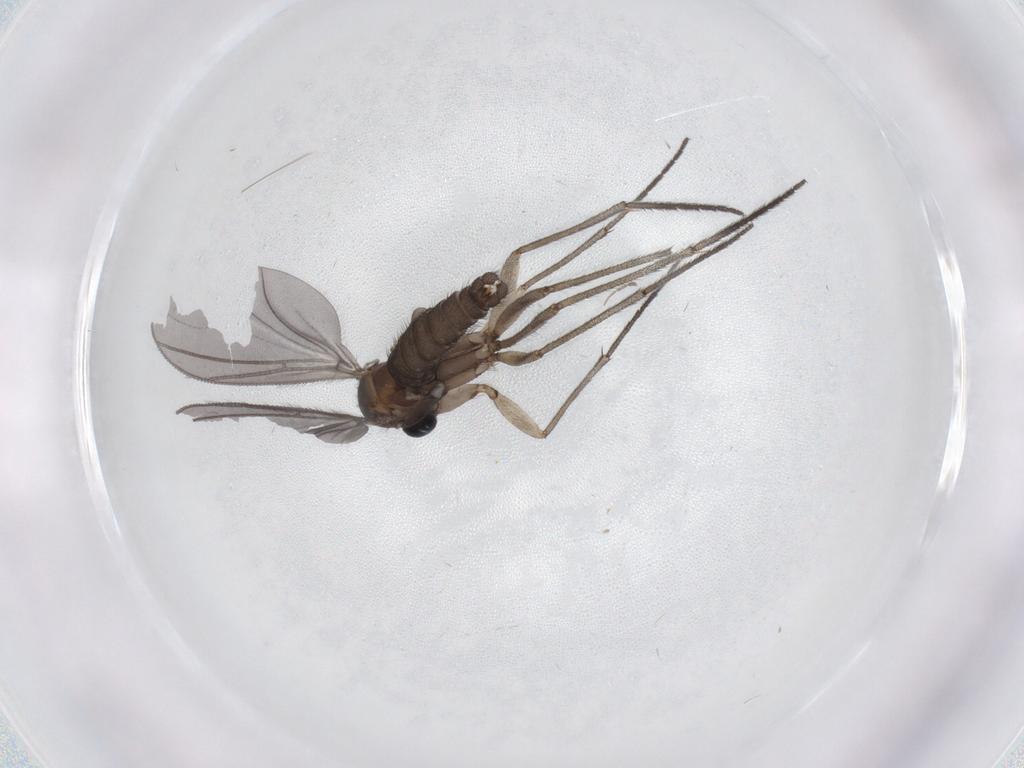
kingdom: Animalia
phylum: Arthropoda
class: Insecta
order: Diptera
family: Sciaridae
